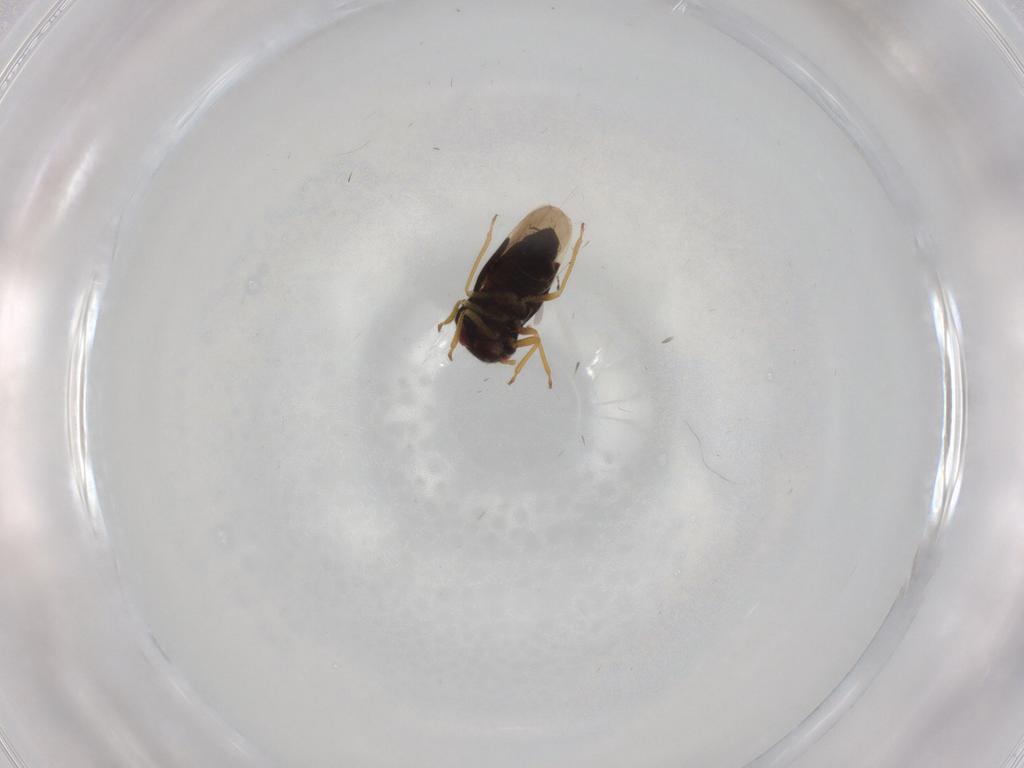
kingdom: Animalia
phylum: Arthropoda
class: Insecta
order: Hemiptera
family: Schizopteridae
